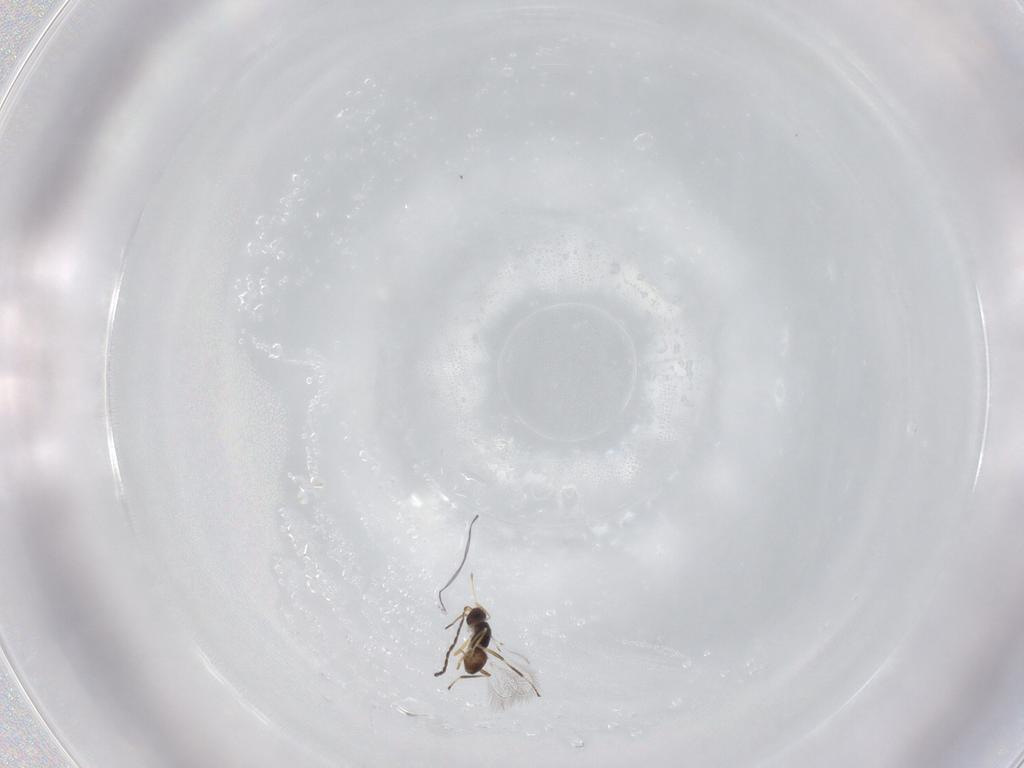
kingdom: Animalia
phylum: Arthropoda
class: Insecta
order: Hymenoptera
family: Mymaridae
